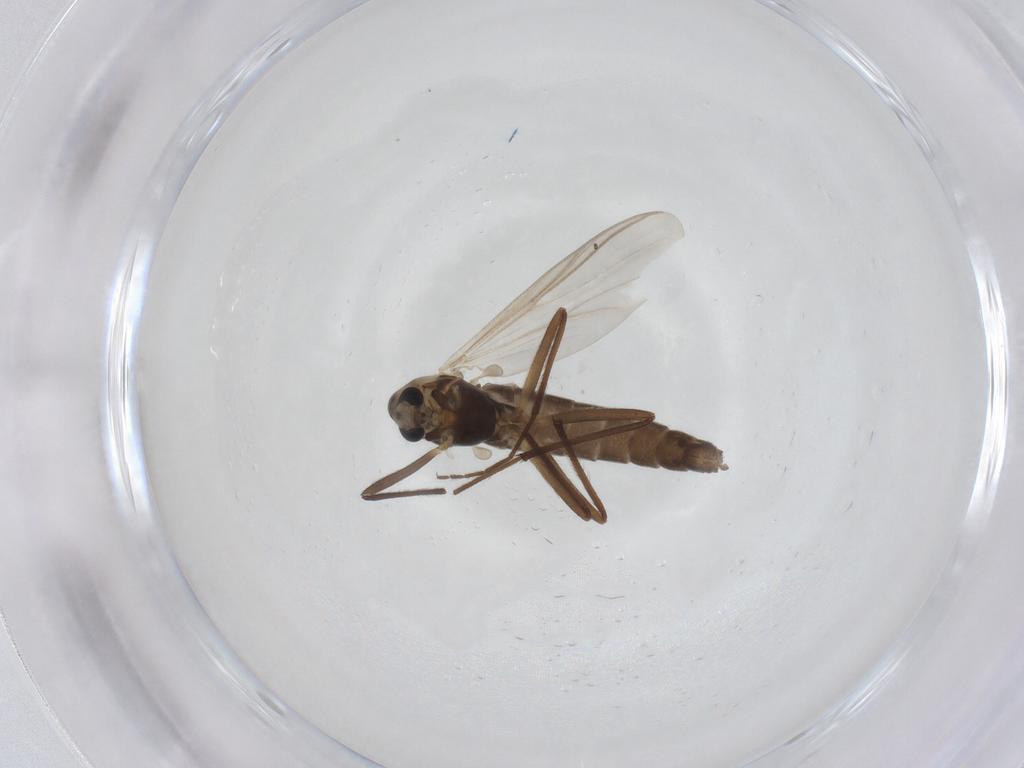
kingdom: Animalia
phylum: Arthropoda
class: Insecta
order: Diptera
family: Chironomidae
